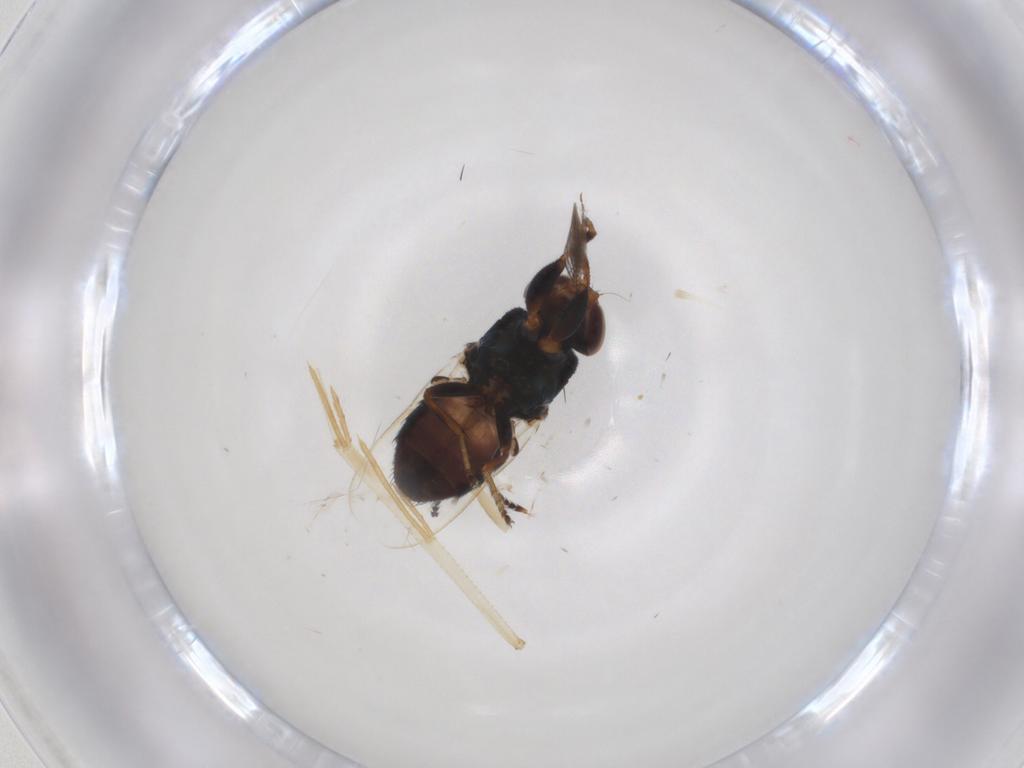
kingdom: Animalia
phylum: Arthropoda
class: Insecta
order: Diptera
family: Chloropidae
